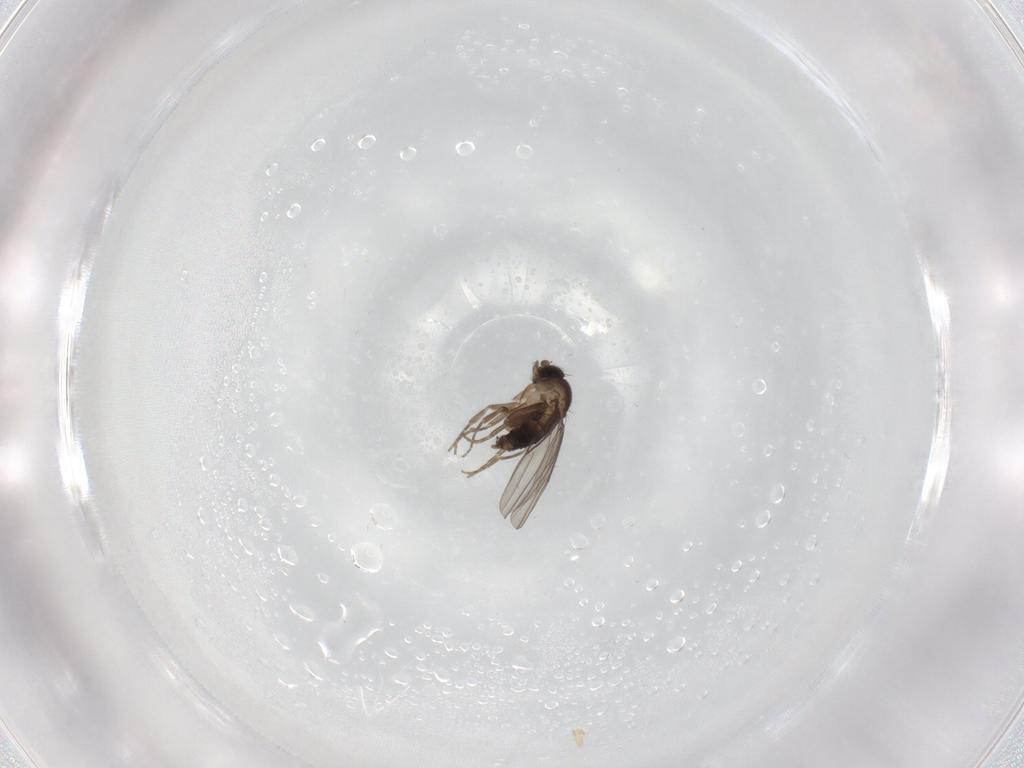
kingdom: Animalia
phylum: Arthropoda
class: Insecta
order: Diptera
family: Sciaridae
